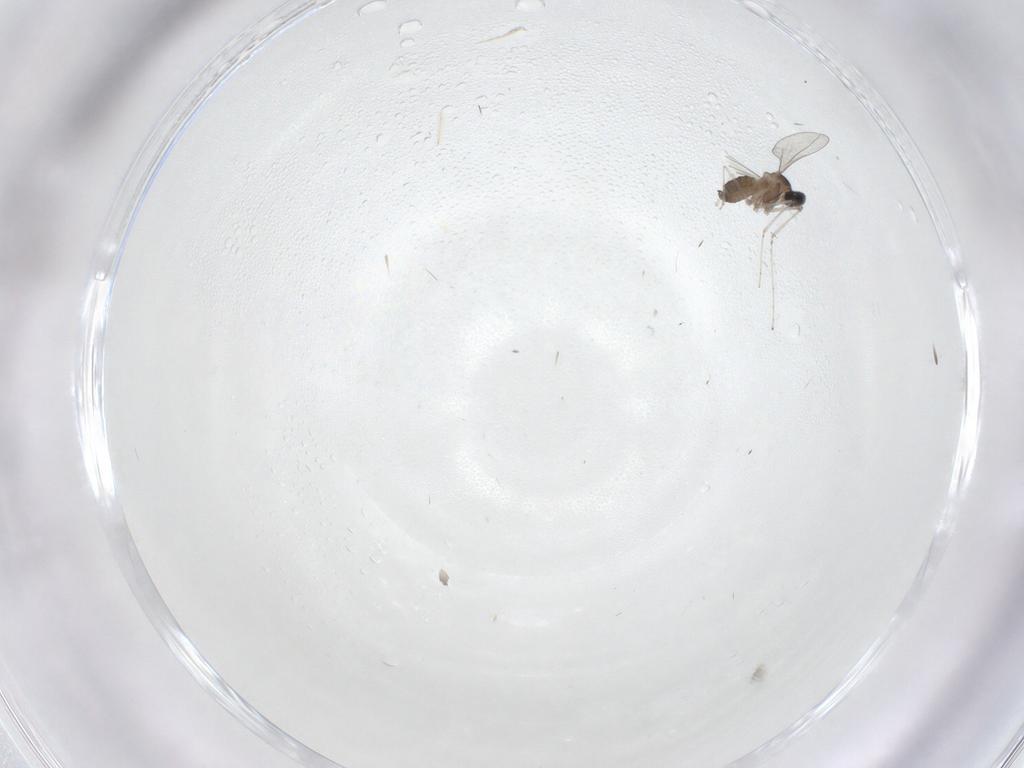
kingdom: Animalia
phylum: Arthropoda
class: Insecta
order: Diptera
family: Cecidomyiidae
